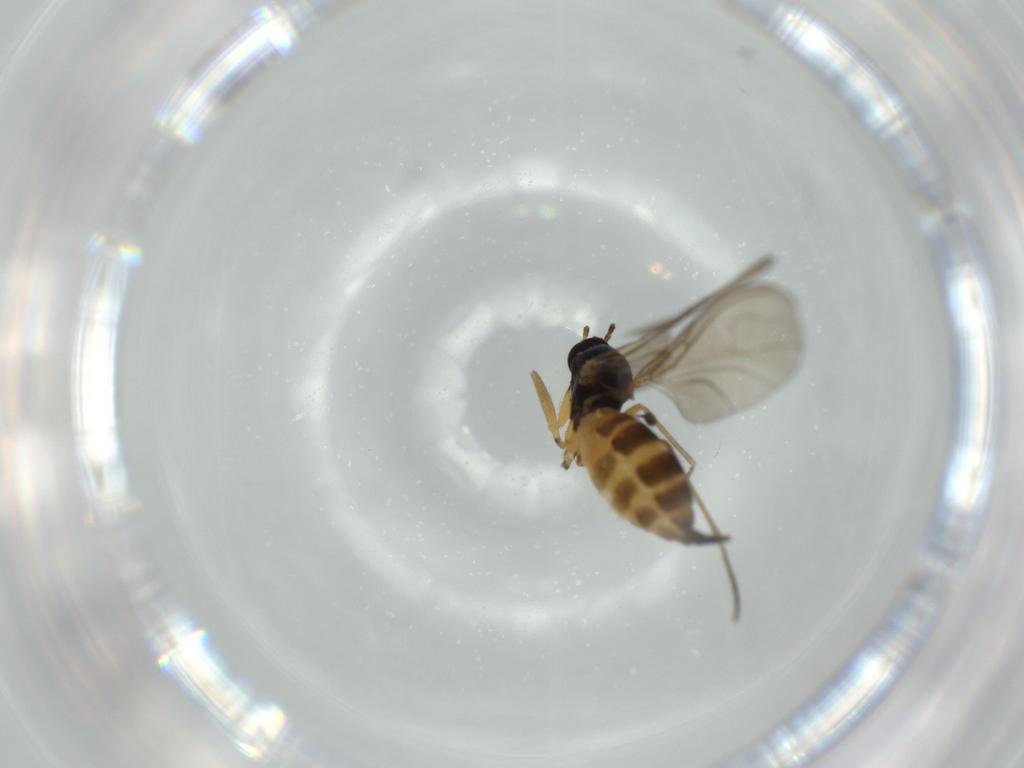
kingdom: Animalia
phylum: Arthropoda
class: Insecta
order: Diptera
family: Sciaridae
